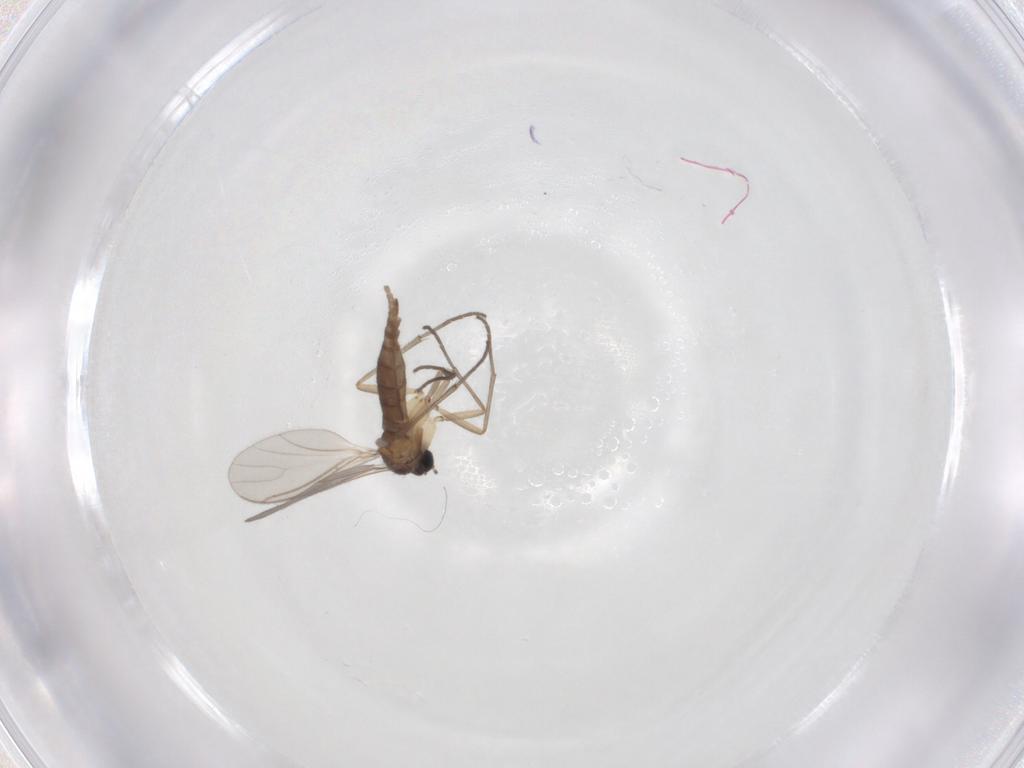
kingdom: Animalia
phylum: Arthropoda
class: Insecta
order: Diptera
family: Sciaridae
